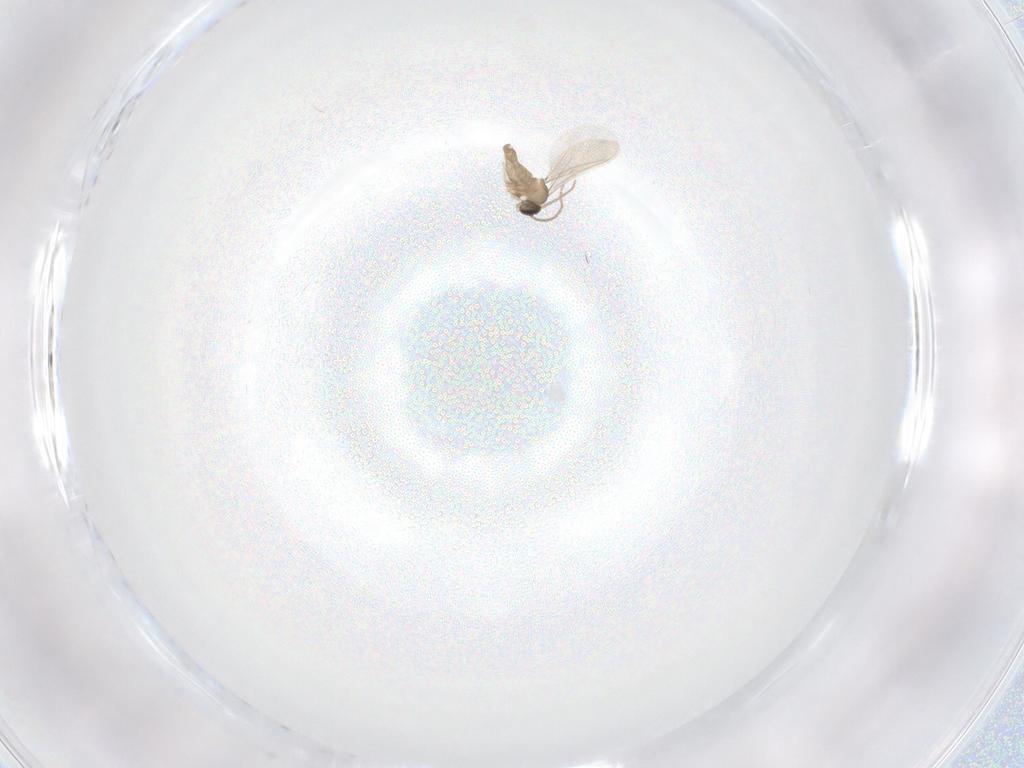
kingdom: Animalia
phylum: Arthropoda
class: Insecta
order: Diptera
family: Cecidomyiidae
